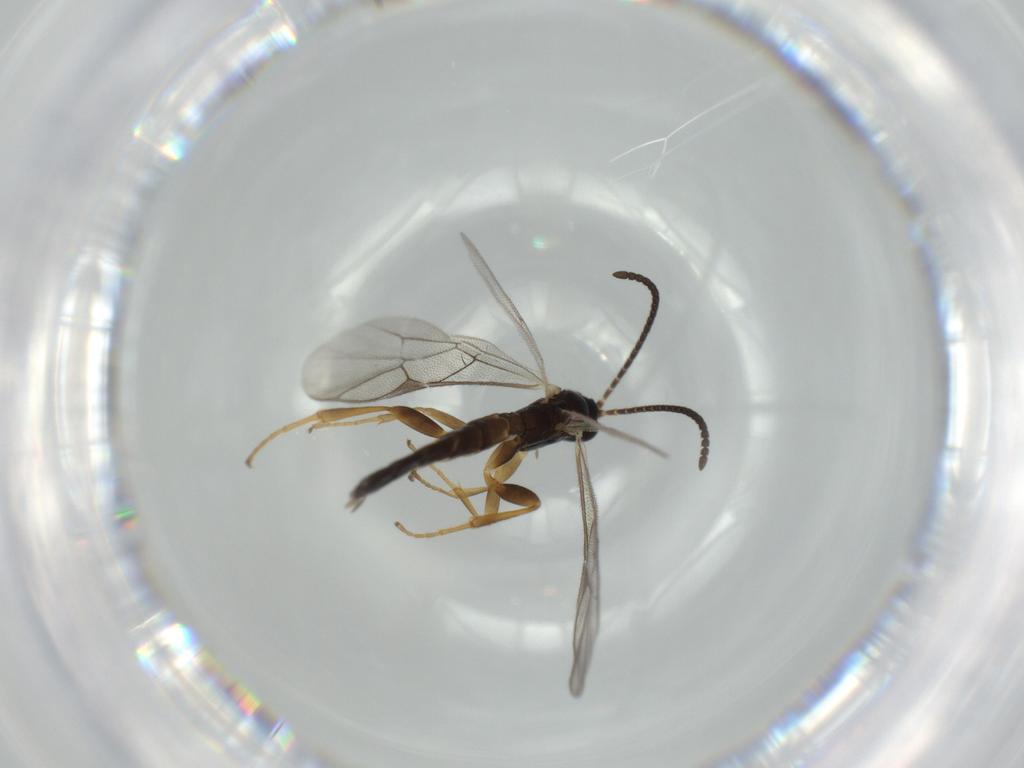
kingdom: Animalia
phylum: Arthropoda
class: Insecta
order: Hymenoptera
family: Ichneumonidae
